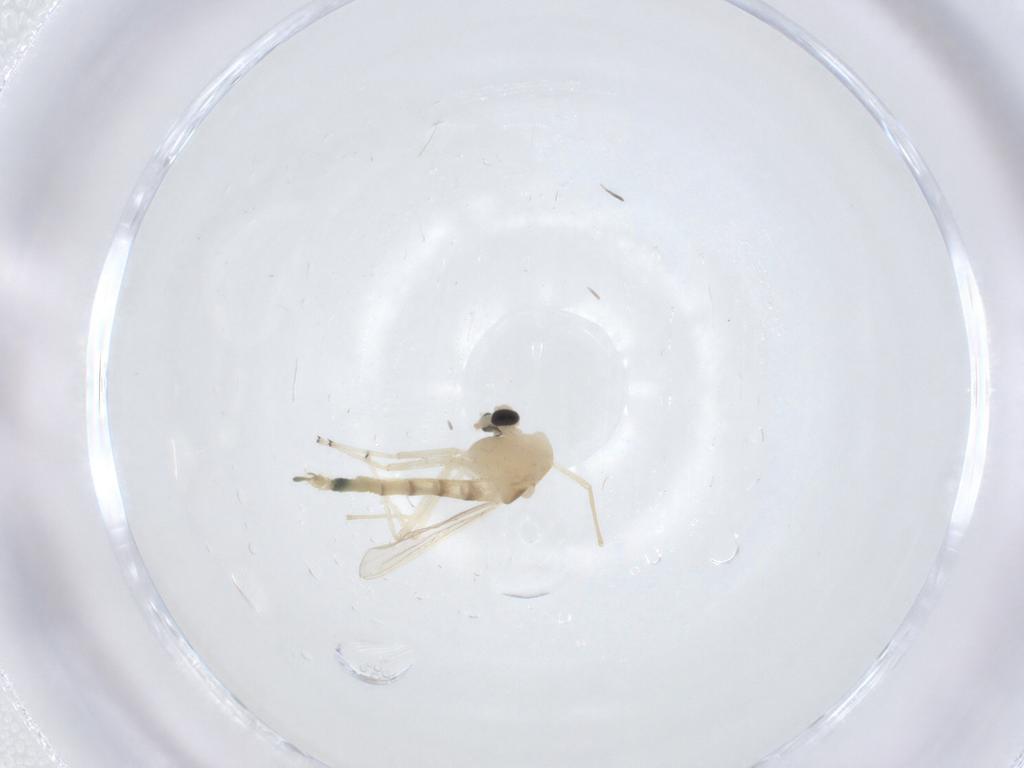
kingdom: Animalia
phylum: Arthropoda
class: Insecta
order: Diptera
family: Chironomidae
